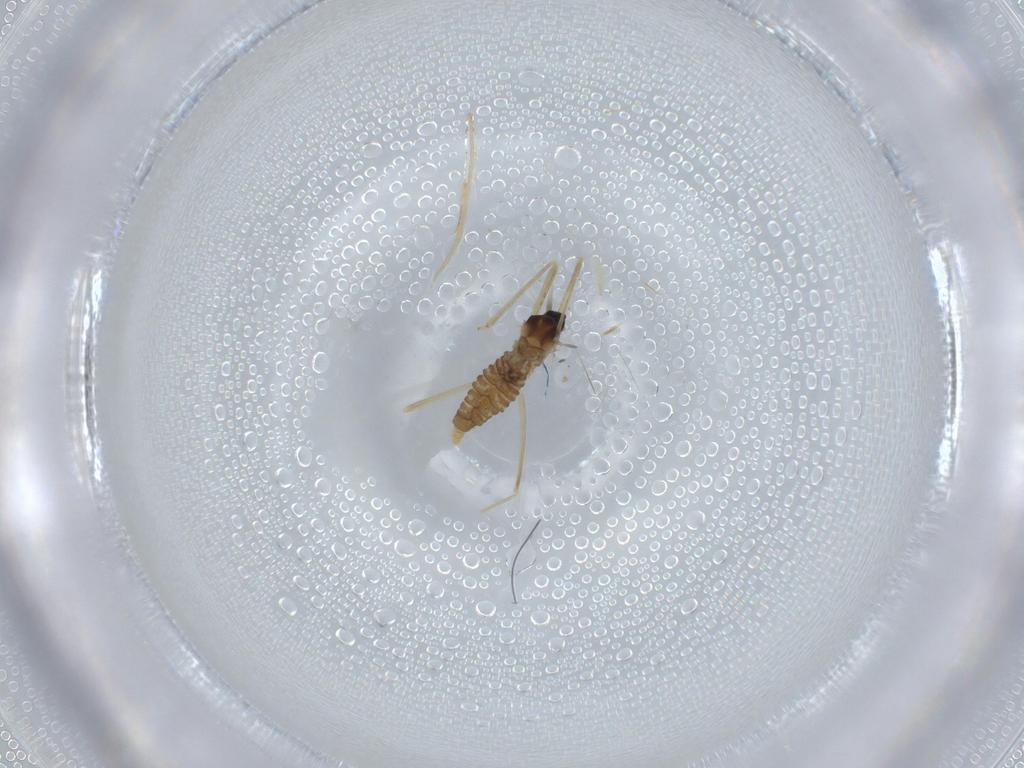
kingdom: Animalia
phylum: Arthropoda
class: Insecta
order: Diptera
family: Cecidomyiidae
